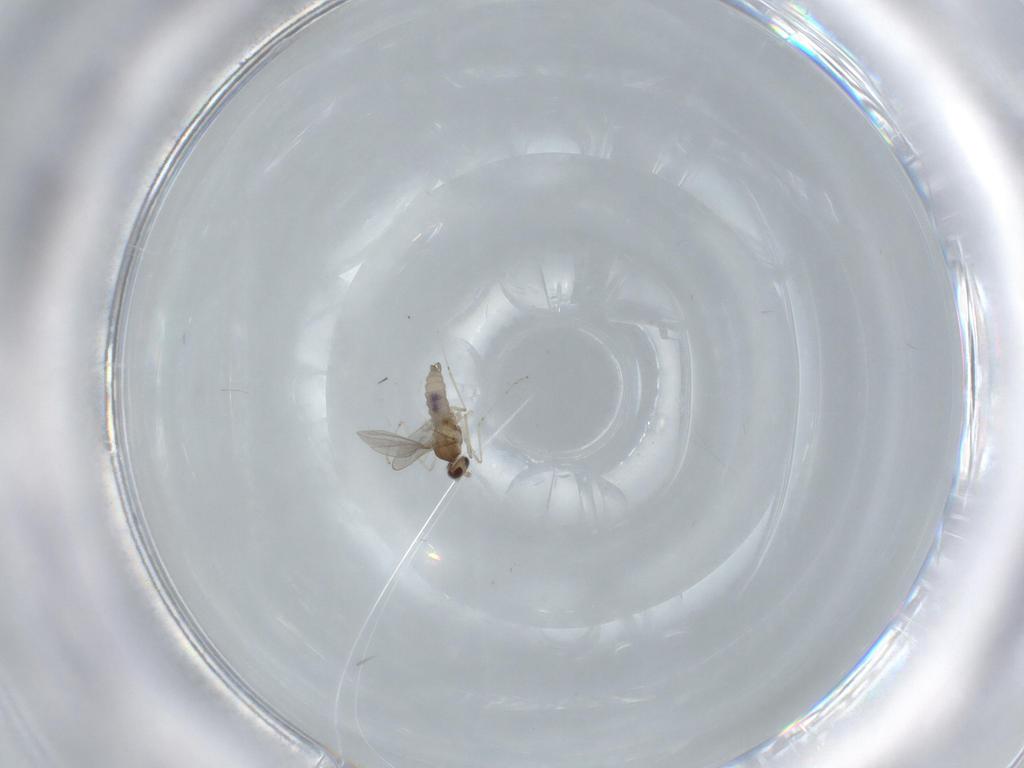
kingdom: Animalia
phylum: Arthropoda
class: Insecta
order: Diptera
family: Cecidomyiidae
